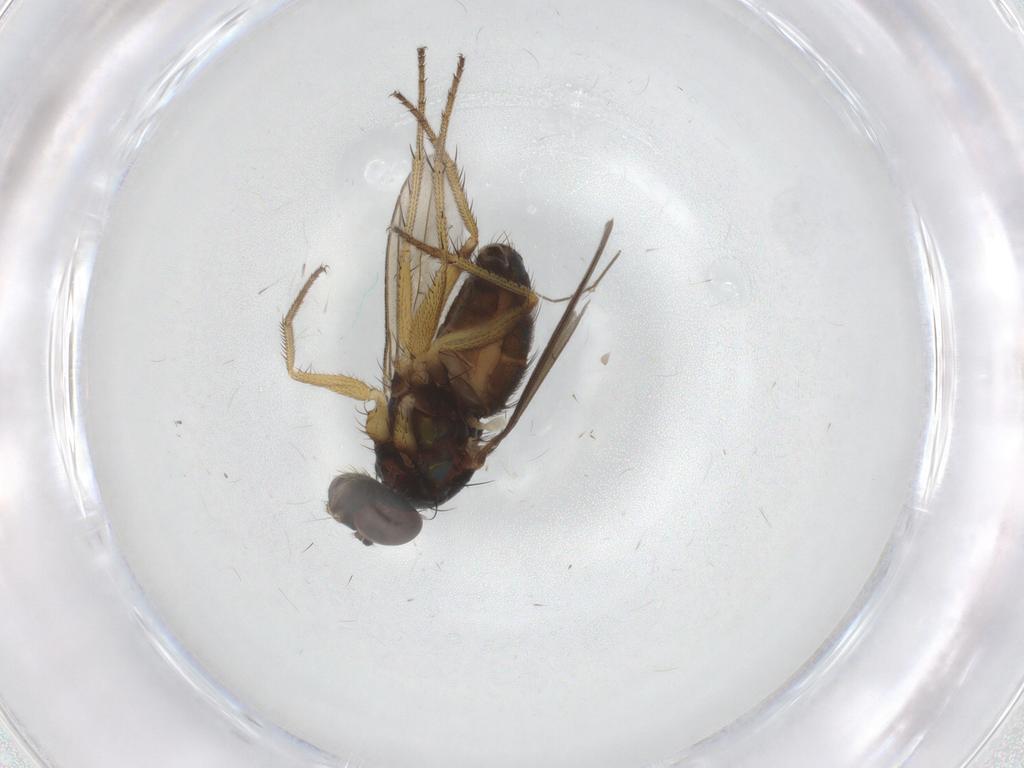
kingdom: Animalia
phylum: Arthropoda
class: Insecta
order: Diptera
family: Dolichopodidae
